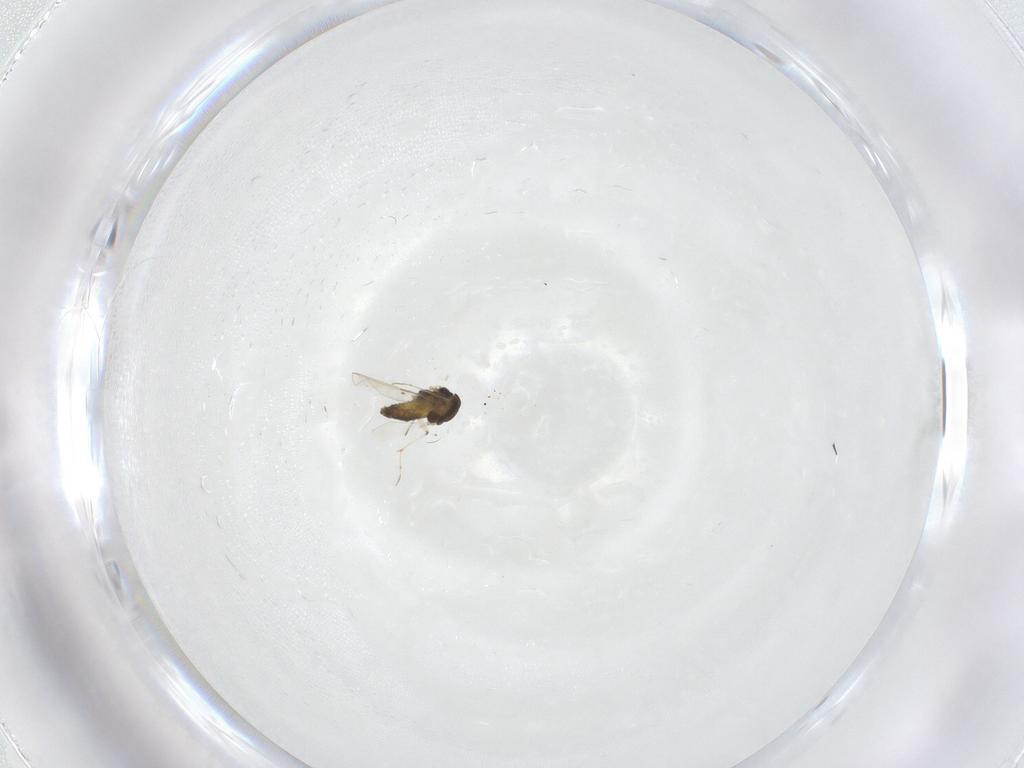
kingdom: Animalia
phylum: Arthropoda
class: Insecta
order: Diptera
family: Chironomidae
